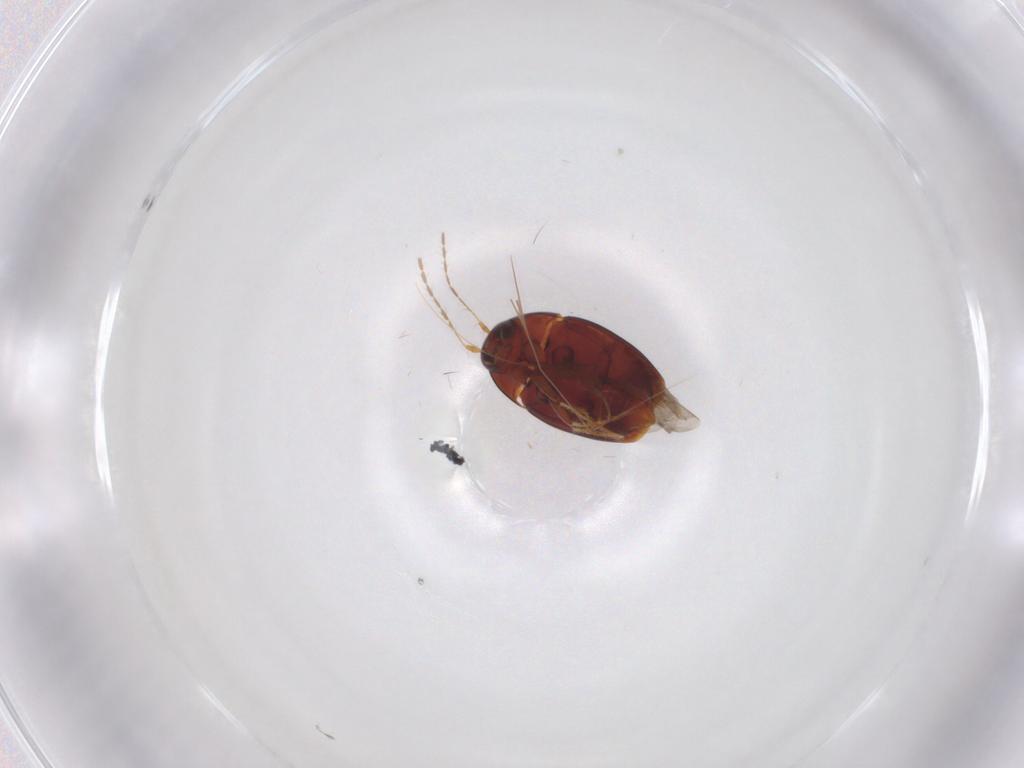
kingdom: Animalia
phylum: Arthropoda
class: Insecta
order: Coleoptera
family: Staphylinidae
